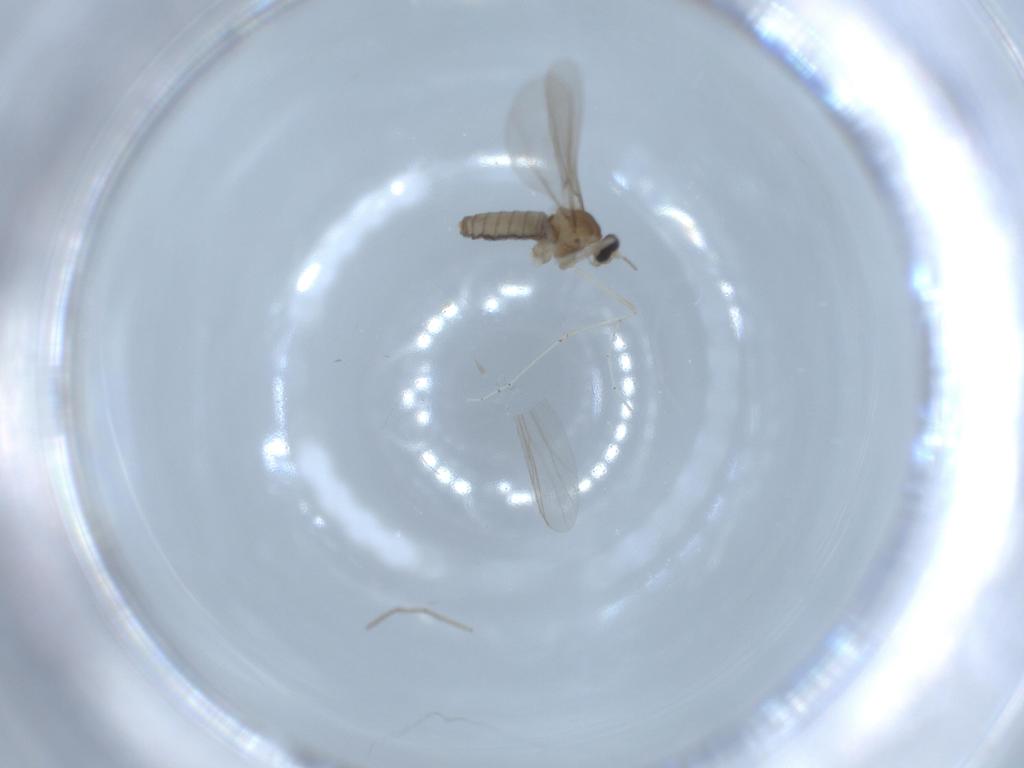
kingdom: Animalia
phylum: Arthropoda
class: Insecta
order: Diptera
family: Cecidomyiidae
